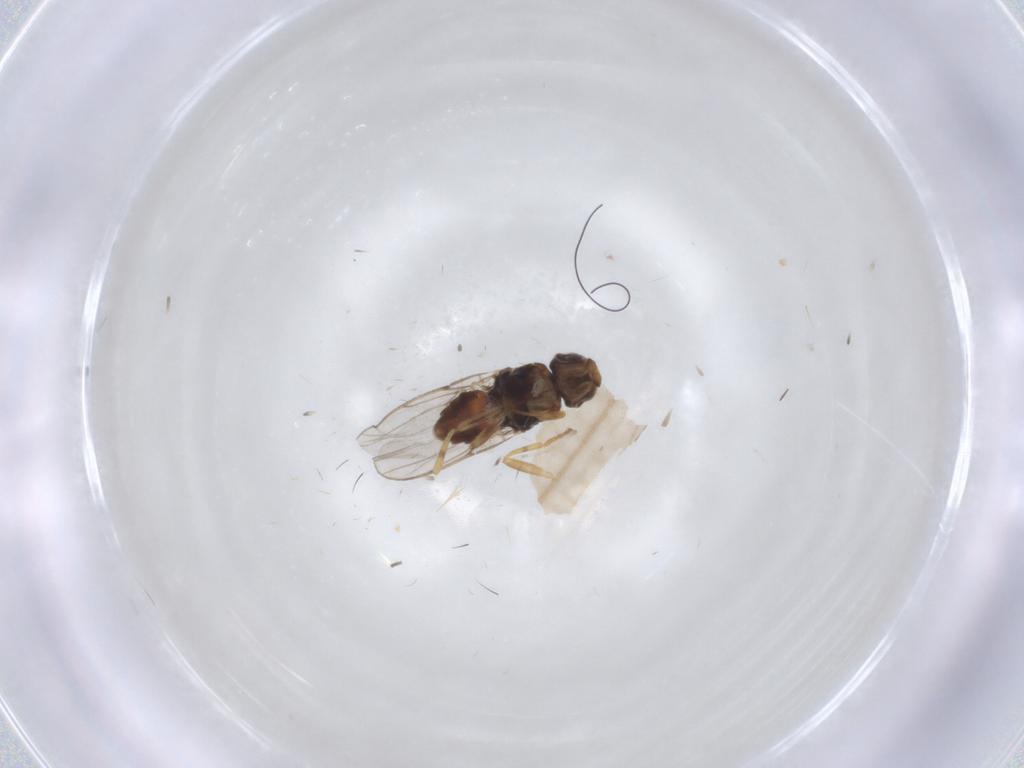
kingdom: Animalia
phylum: Arthropoda
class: Insecta
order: Diptera
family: Chloropidae
